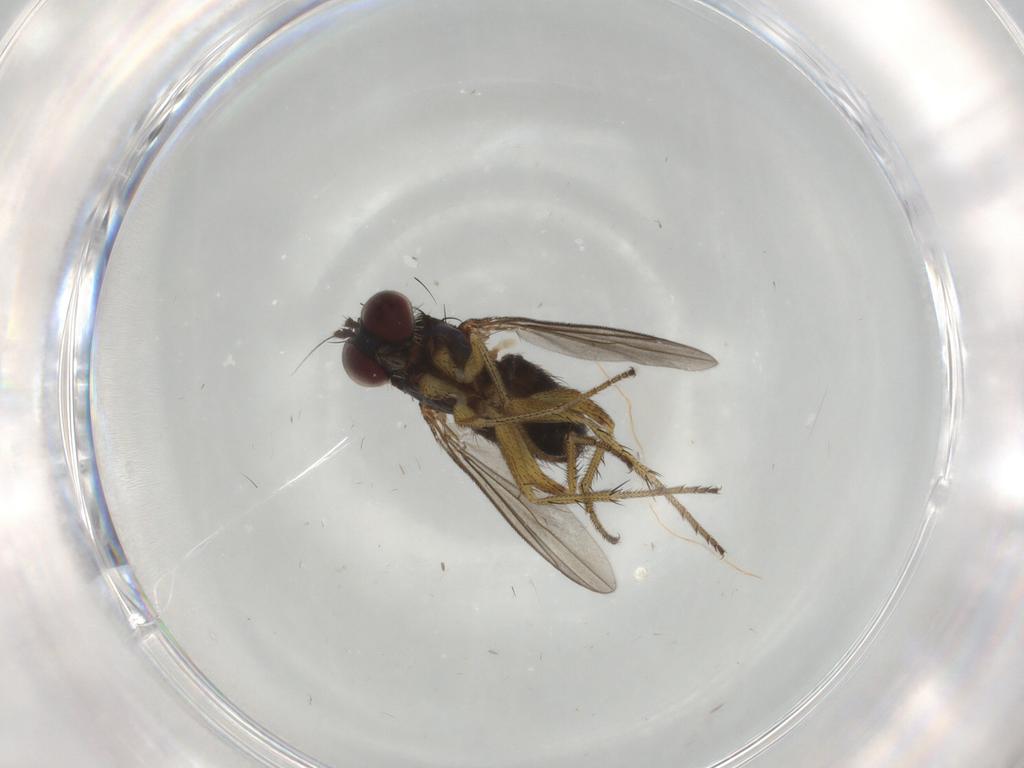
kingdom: Animalia
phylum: Arthropoda
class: Insecta
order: Diptera
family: Dolichopodidae
